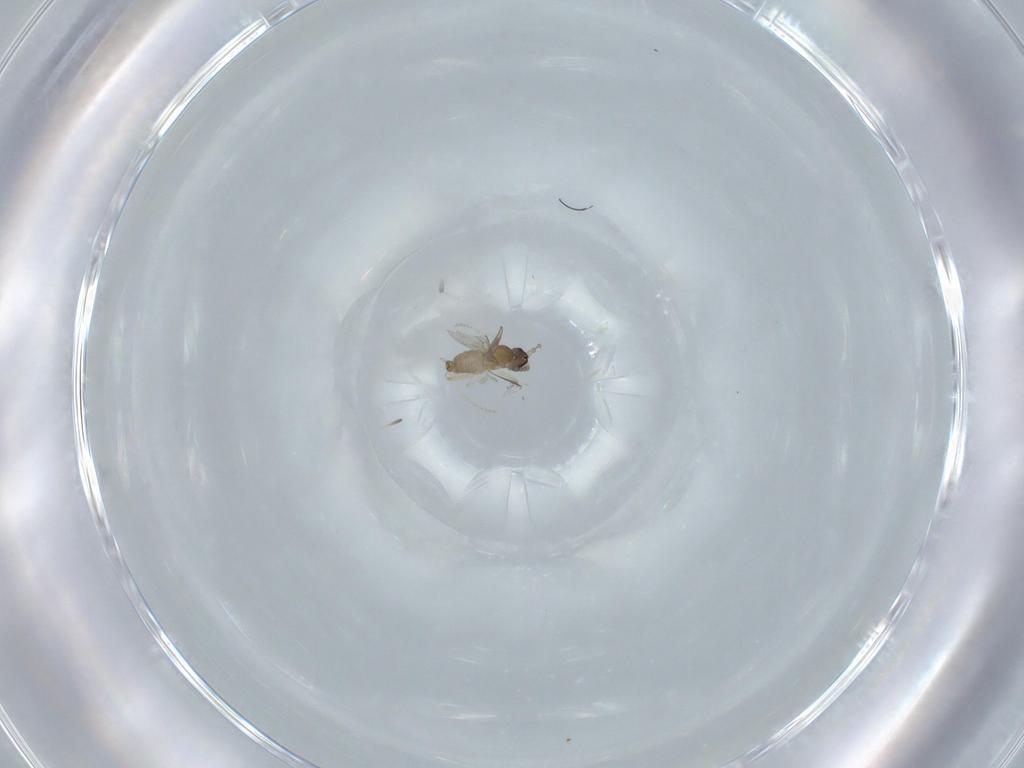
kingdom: Animalia
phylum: Arthropoda
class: Insecta
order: Diptera
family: Cecidomyiidae
